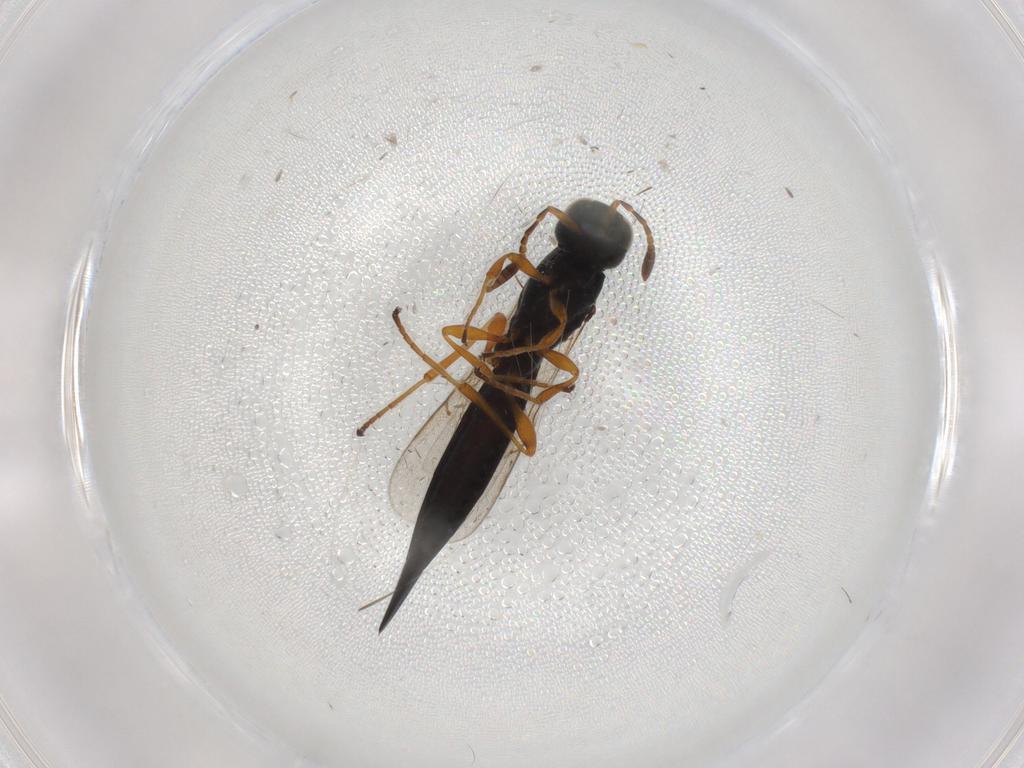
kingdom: Animalia
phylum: Arthropoda
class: Insecta
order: Hymenoptera
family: Scelionidae
